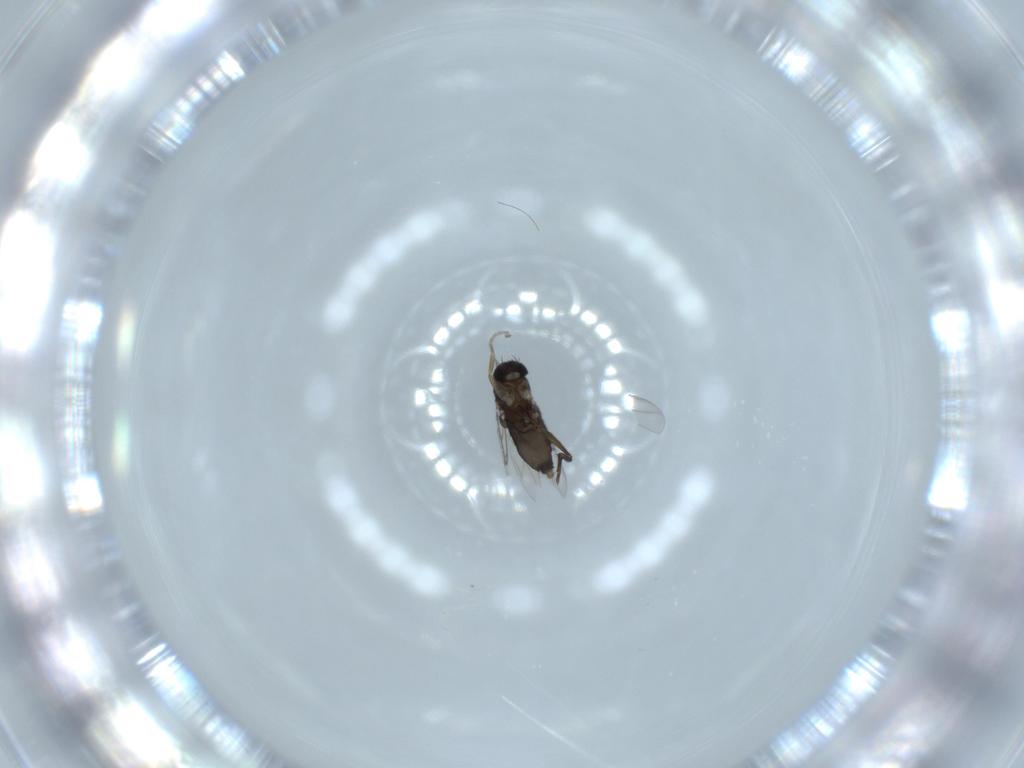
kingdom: Animalia
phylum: Arthropoda
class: Insecta
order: Diptera
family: Phoridae
